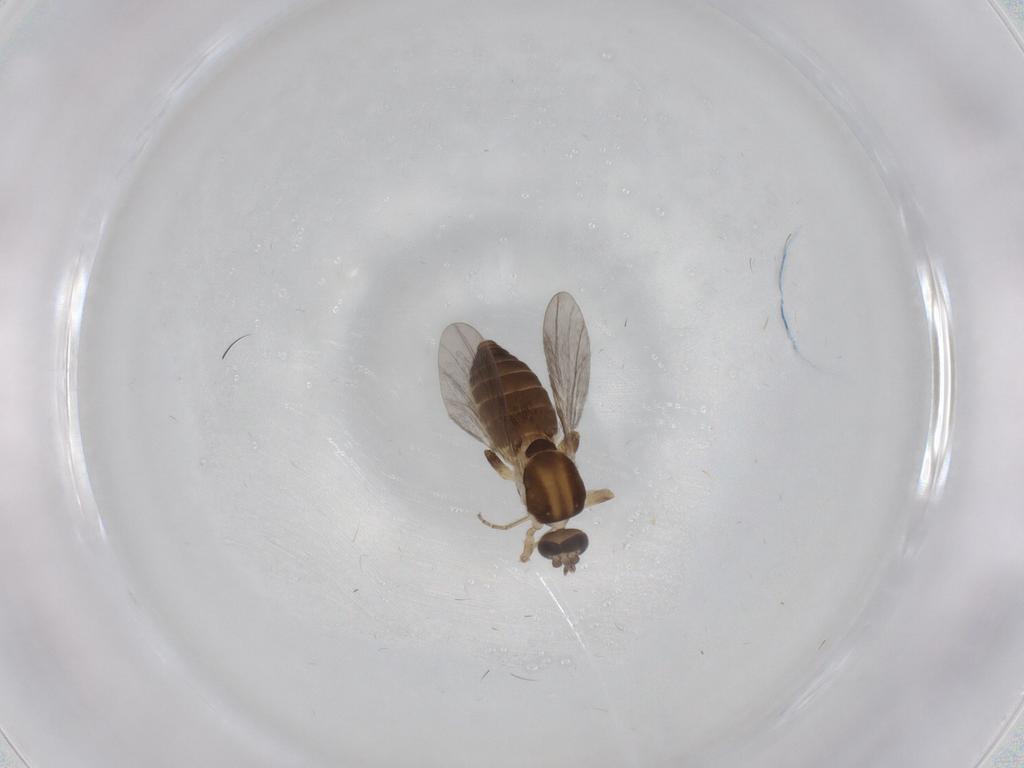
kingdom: Animalia
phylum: Arthropoda
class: Insecta
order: Diptera
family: Ceratopogonidae
